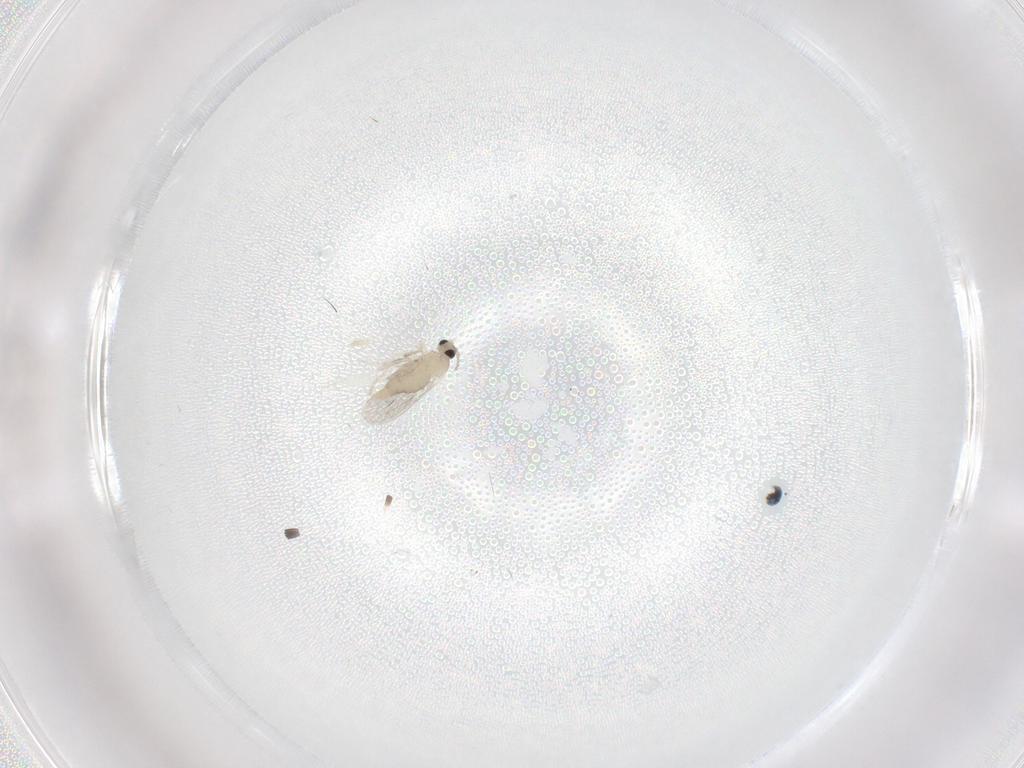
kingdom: Animalia
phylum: Arthropoda
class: Insecta
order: Diptera
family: Cecidomyiidae
